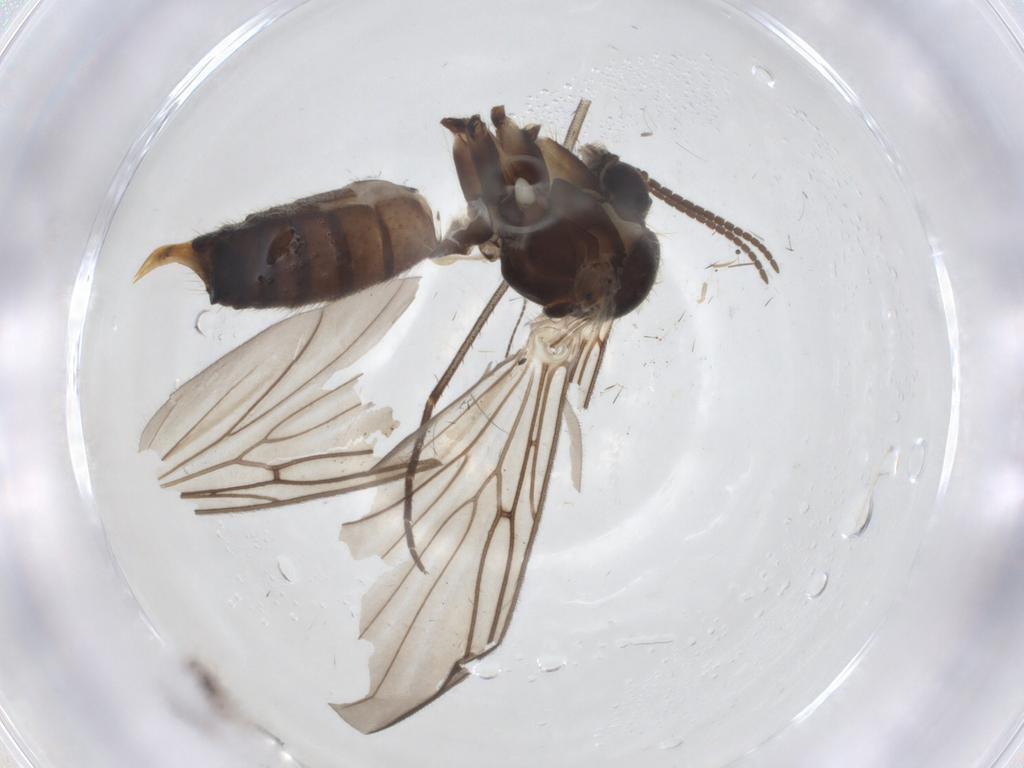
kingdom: Animalia
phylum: Arthropoda
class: Insecta
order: Diptera
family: Mycetophilidae
